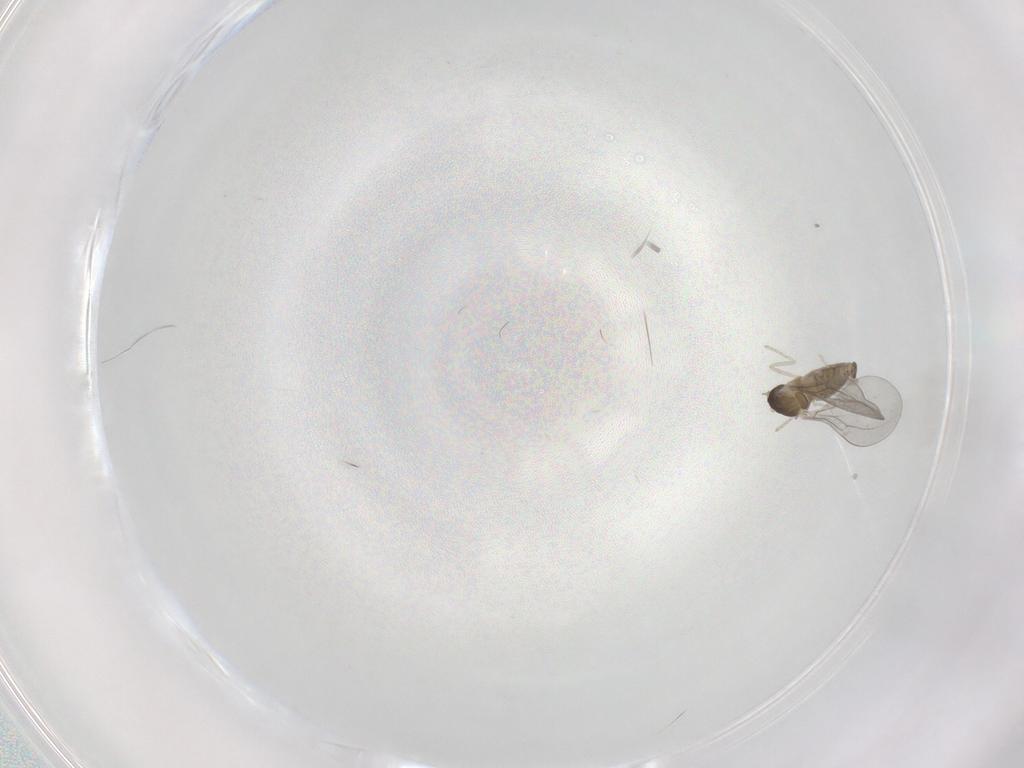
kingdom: Animalia
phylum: Arthropoda
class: Insecta
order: Diptera
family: Cecidomyiidae
